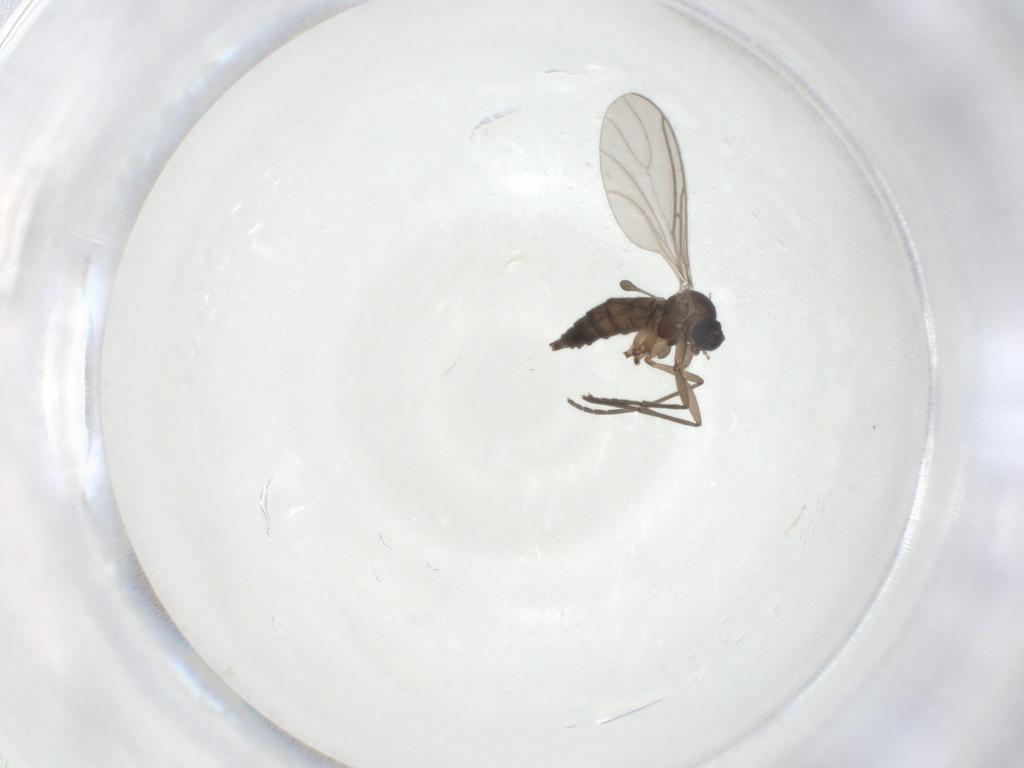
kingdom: Animalia
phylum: Arthropoda
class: Insecta
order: Diptera
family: Sciaridae
